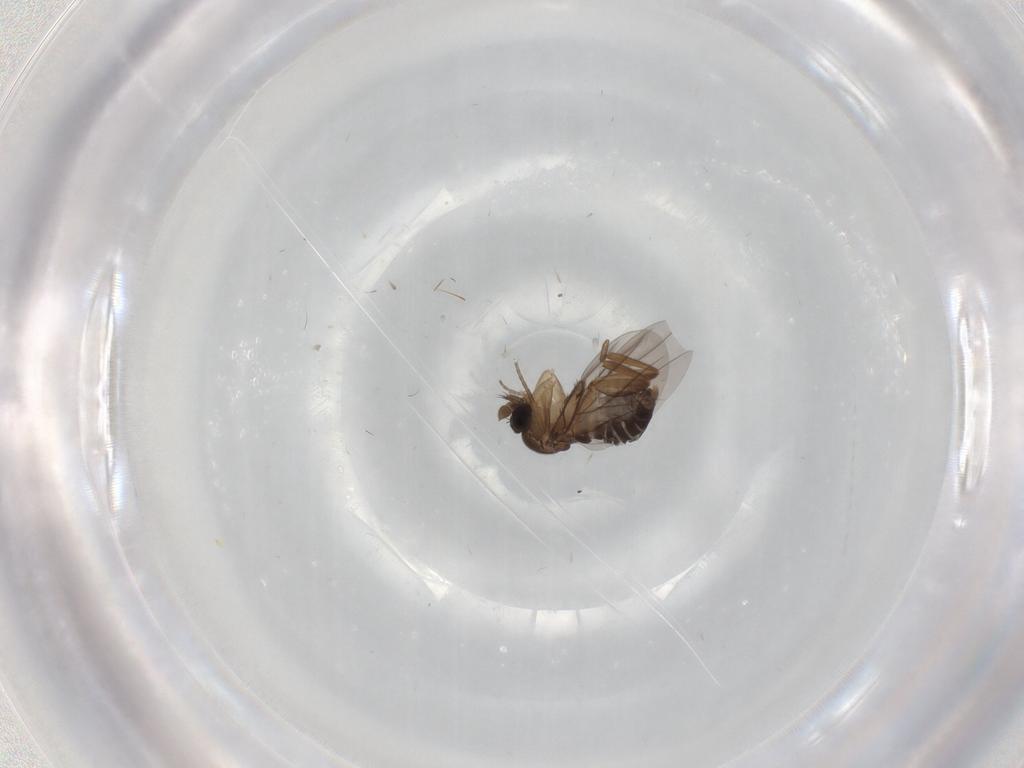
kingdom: Animalia
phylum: Arthropoda
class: Insecta
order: Diptera
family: Phoridae
